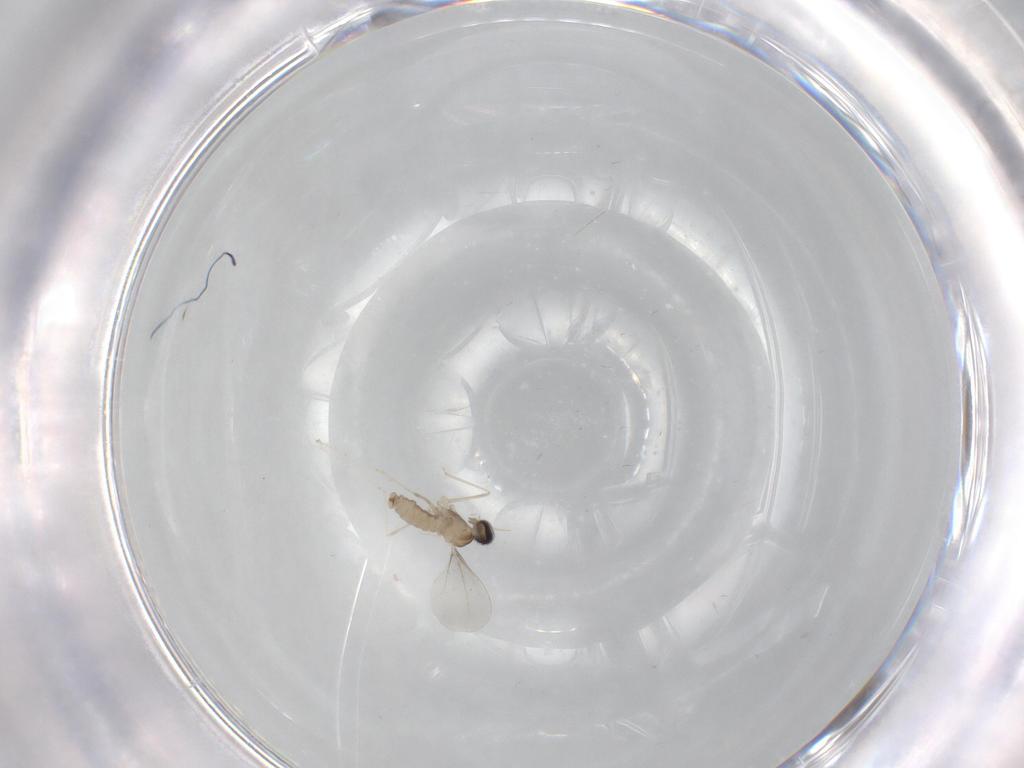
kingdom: Animalia
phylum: Arthropoda
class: Insecta
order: Diptera
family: Cecidomyiidae
